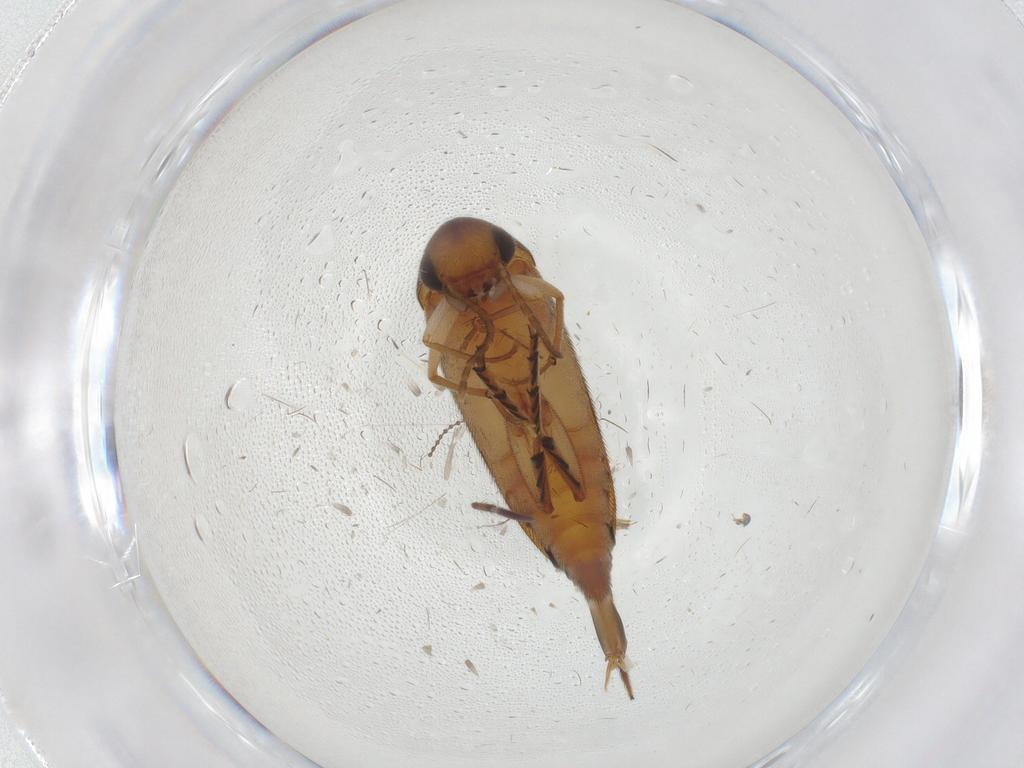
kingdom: Animalia
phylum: Arthropoda
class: Insecta
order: Coleoptera
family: Mordellidae
